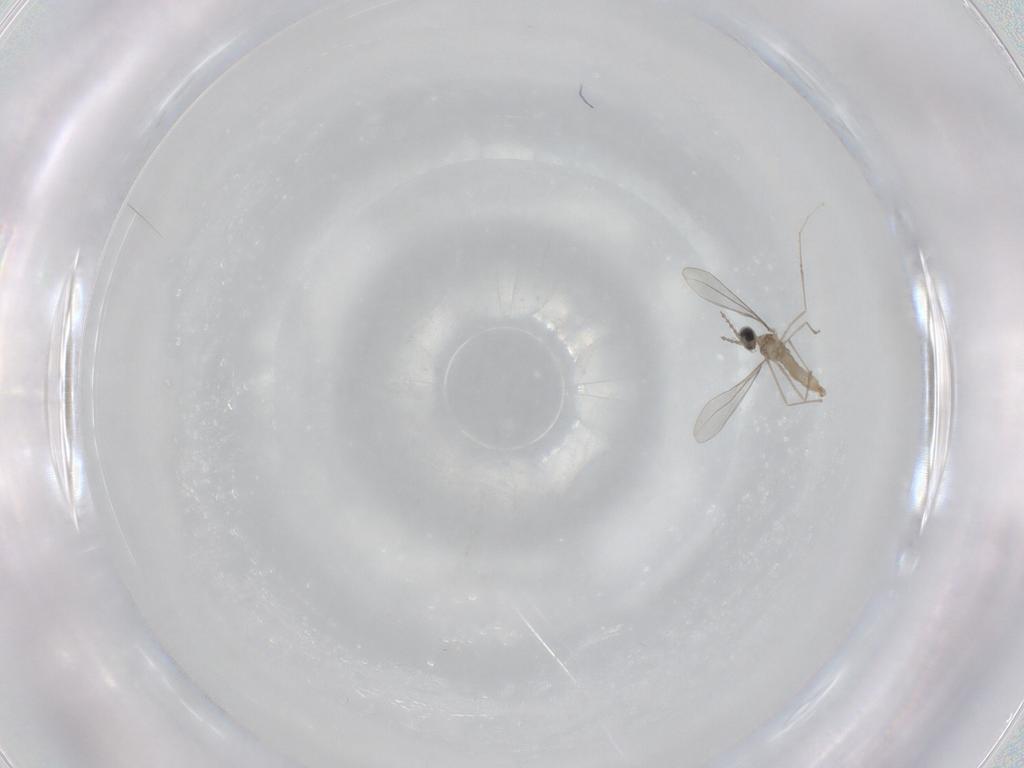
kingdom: Animalia
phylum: Arthropoda
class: Insecta
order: Diptera
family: Cecidomyiidae
